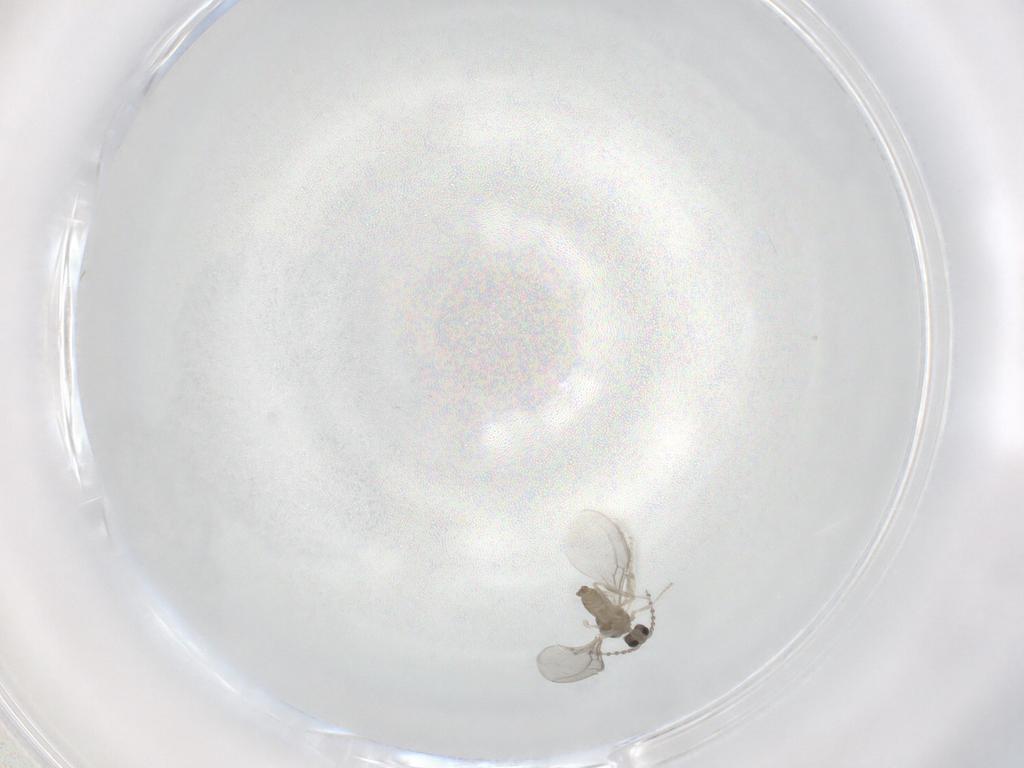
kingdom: Animalia
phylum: Arthropoda
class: Insecta
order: Diptera
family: Cecidomyiidae
